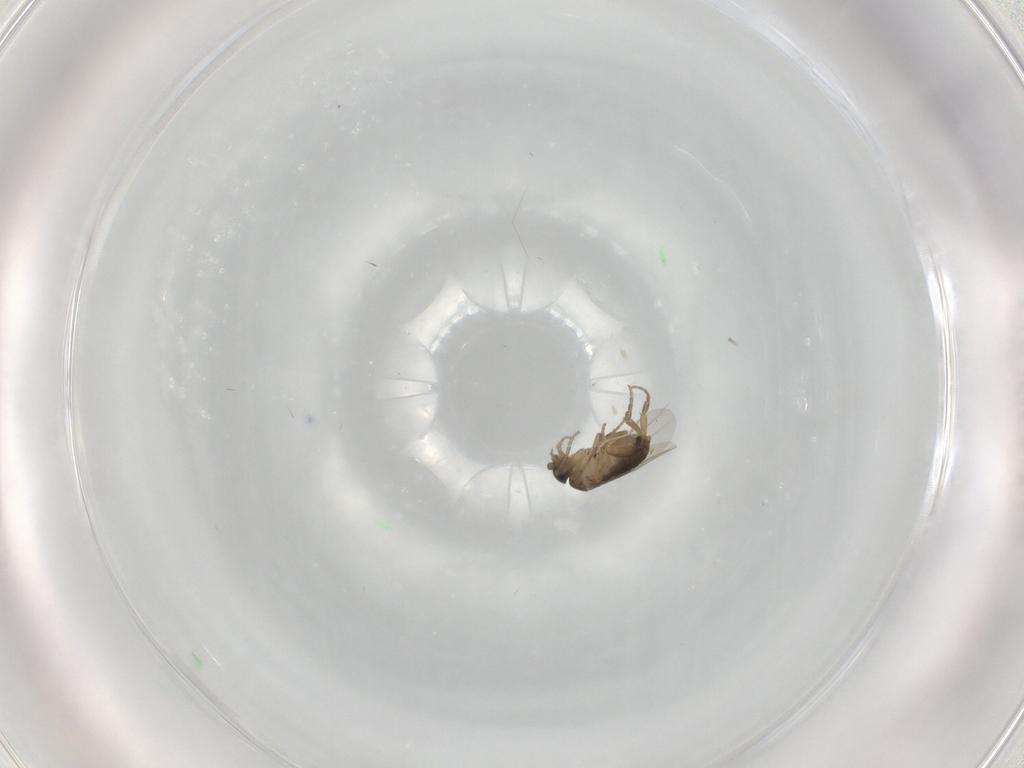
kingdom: Animalia
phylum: Arthropoda
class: Insecta
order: Diptera
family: Phoridae
